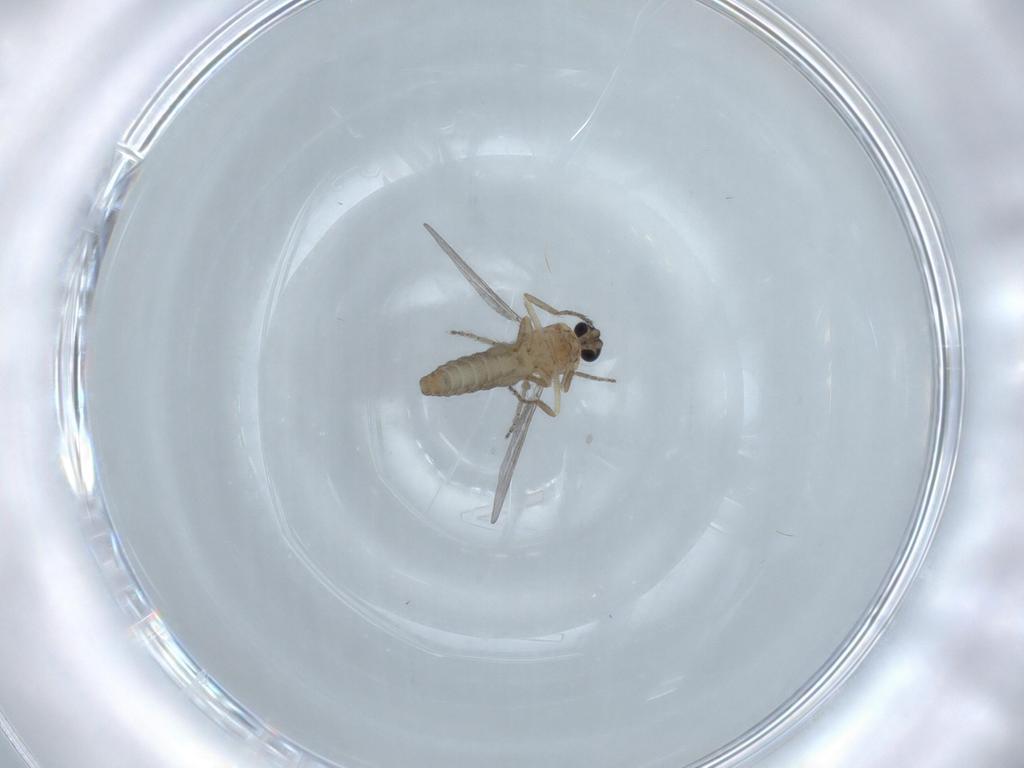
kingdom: Animalia
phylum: Arthropoda
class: Insecta
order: Diptera
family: Ceratopogonidae
